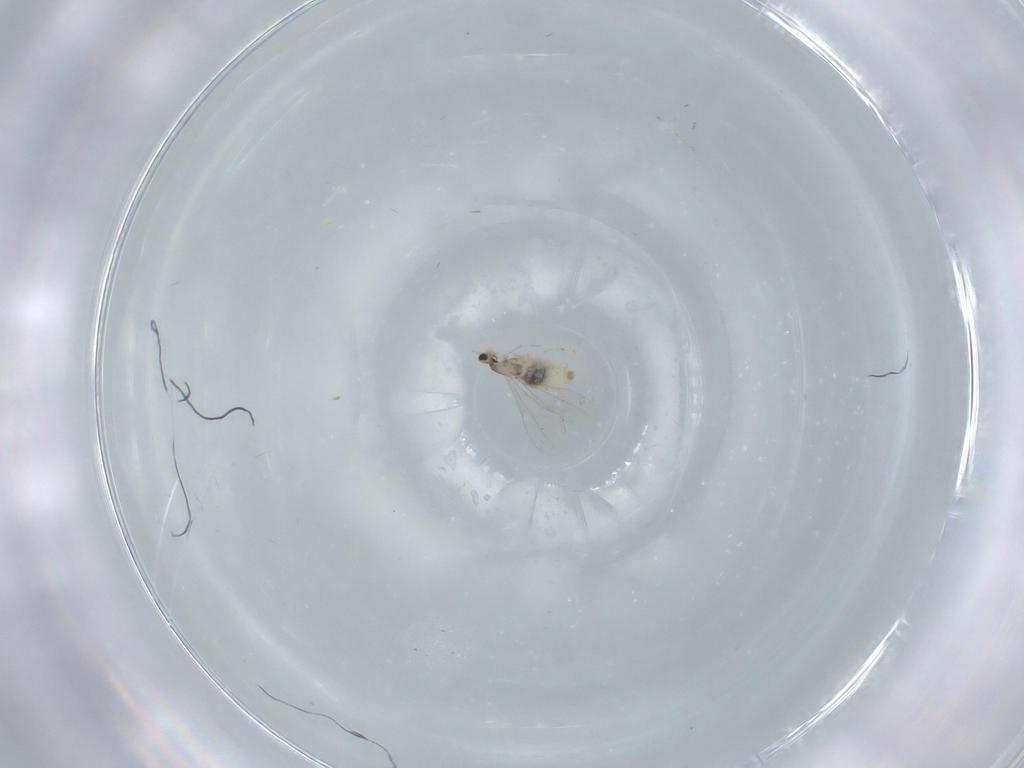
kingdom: Animalia
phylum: Arthropoda
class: Insecta
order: Diptera
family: Cecidomyiidae
